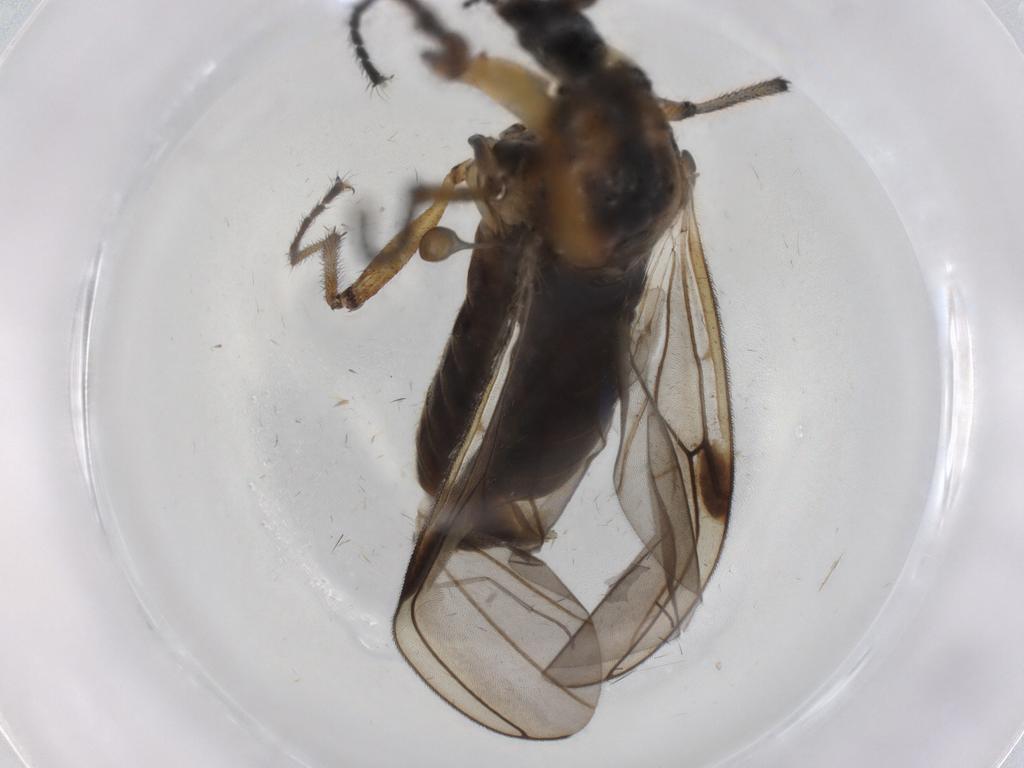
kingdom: Animalia
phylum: Arthropoda
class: Insecta
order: Diptera
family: Bibionidae
